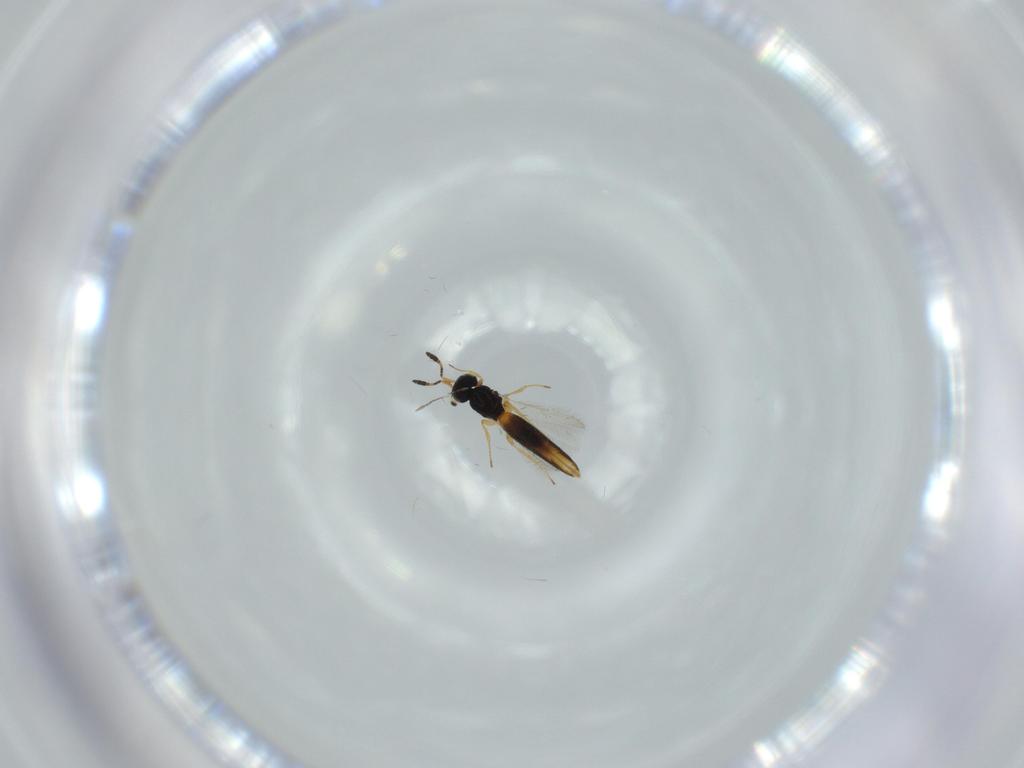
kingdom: Animalia
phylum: Arthropoda
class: Insecta
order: Hymenoptera
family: Scelionidae
